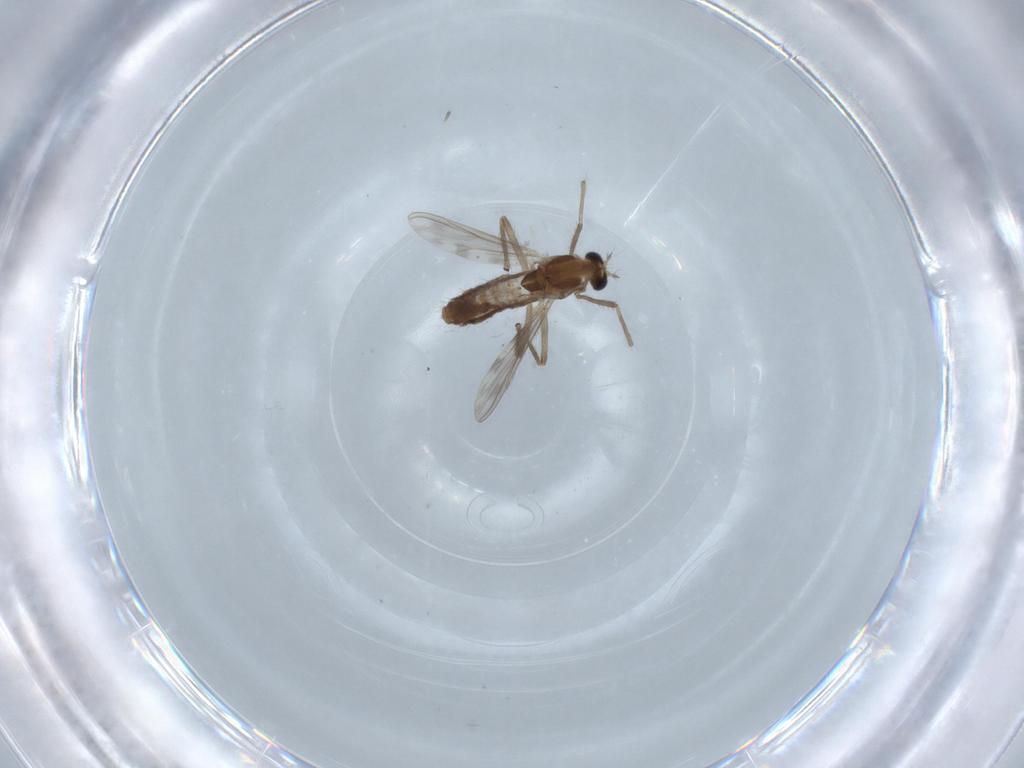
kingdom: Animalia
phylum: Arthropoda
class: Insecta
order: Diptera
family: Chironomidae
